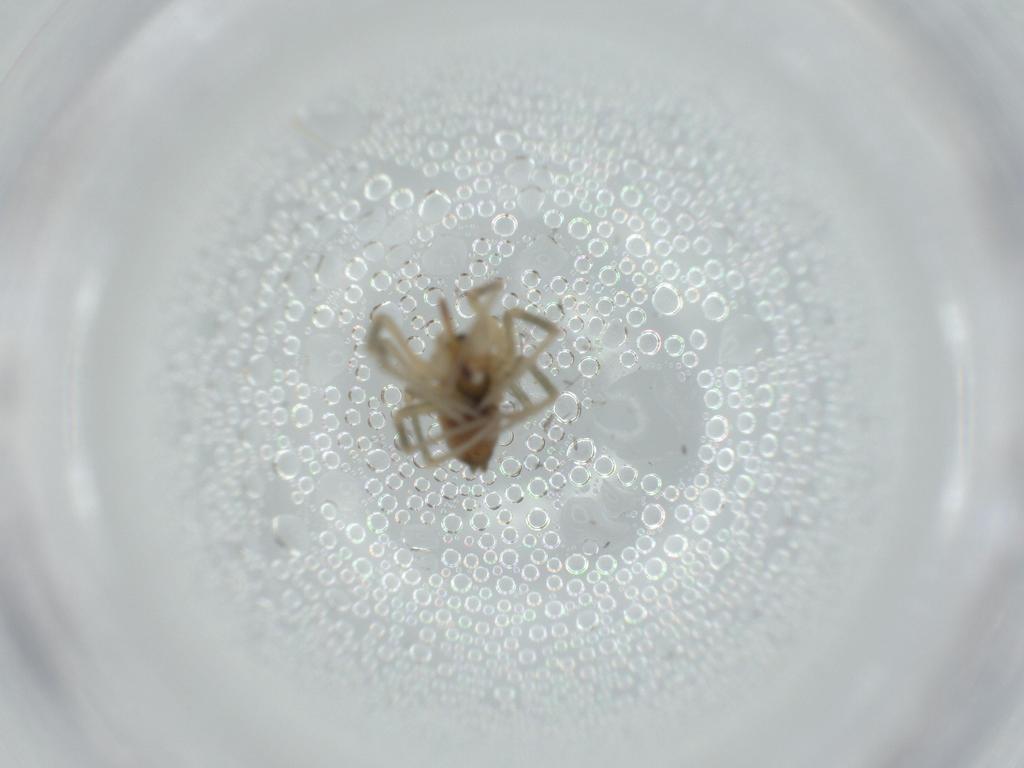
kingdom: Animalia
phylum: Arthropoda
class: Arachnida
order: Araneae
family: Linyphiidae
